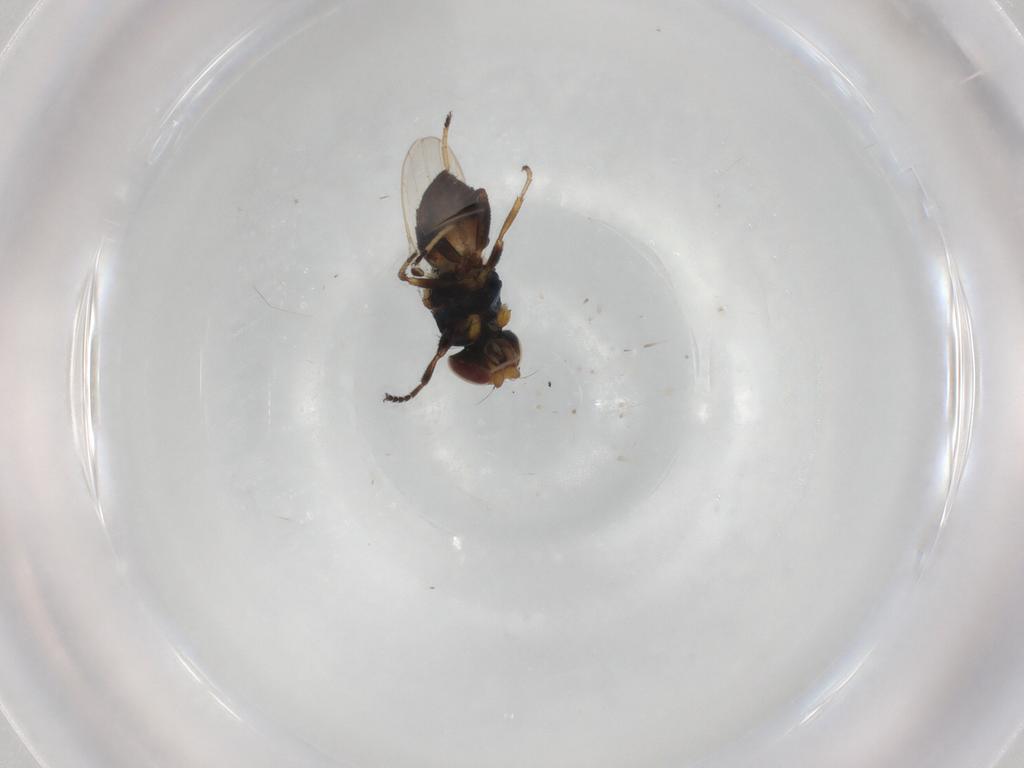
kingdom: Animalia
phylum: Arthropoda
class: Insecta
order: Diptera
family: Chloropidae
